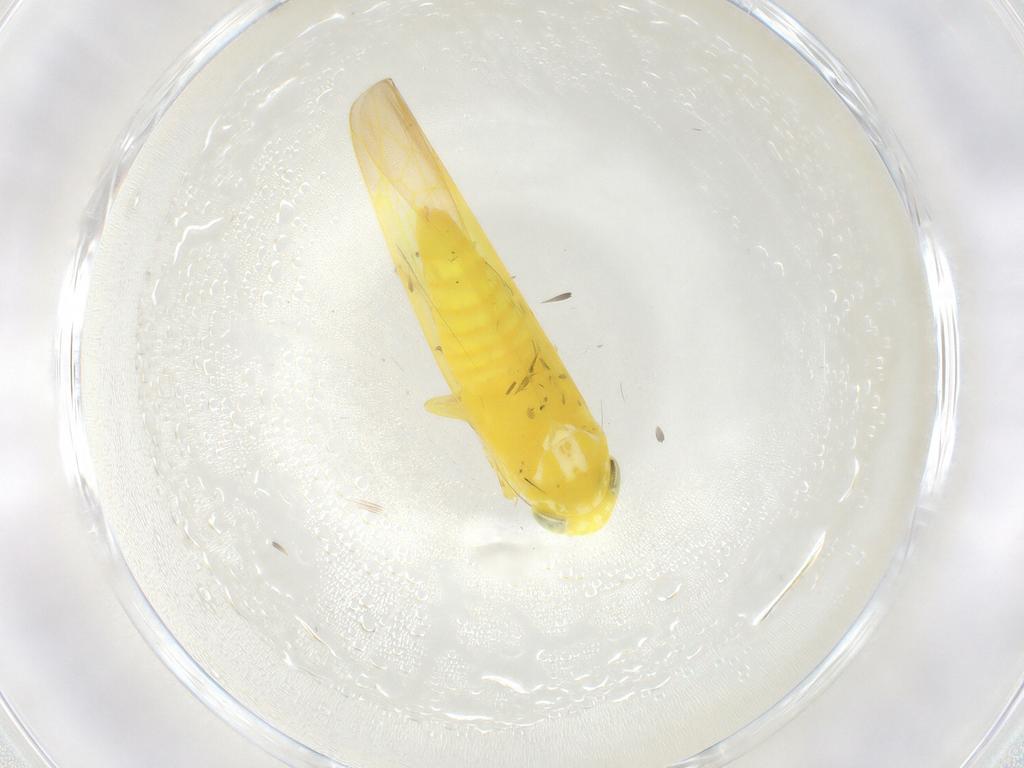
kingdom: Animalia
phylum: Arthropoda
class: Insecta
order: Hemiptera
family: Cicadellidae
